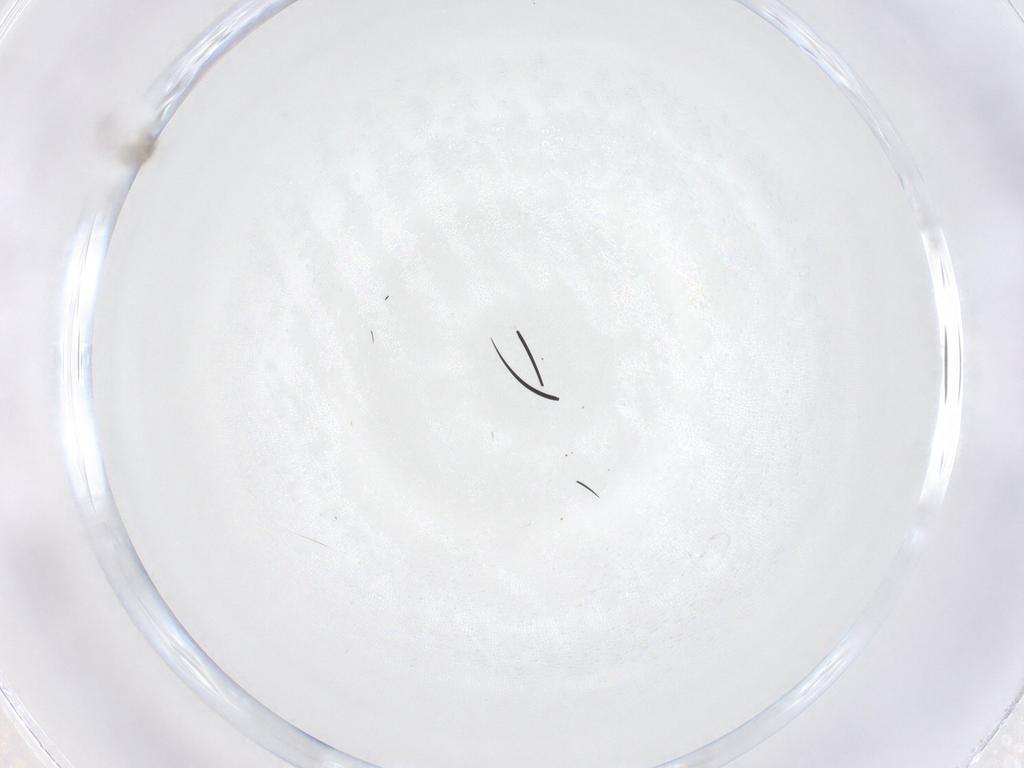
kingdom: Animalia
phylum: Arthropoda
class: Insecta
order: Diptera
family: Cecidomyiidae
